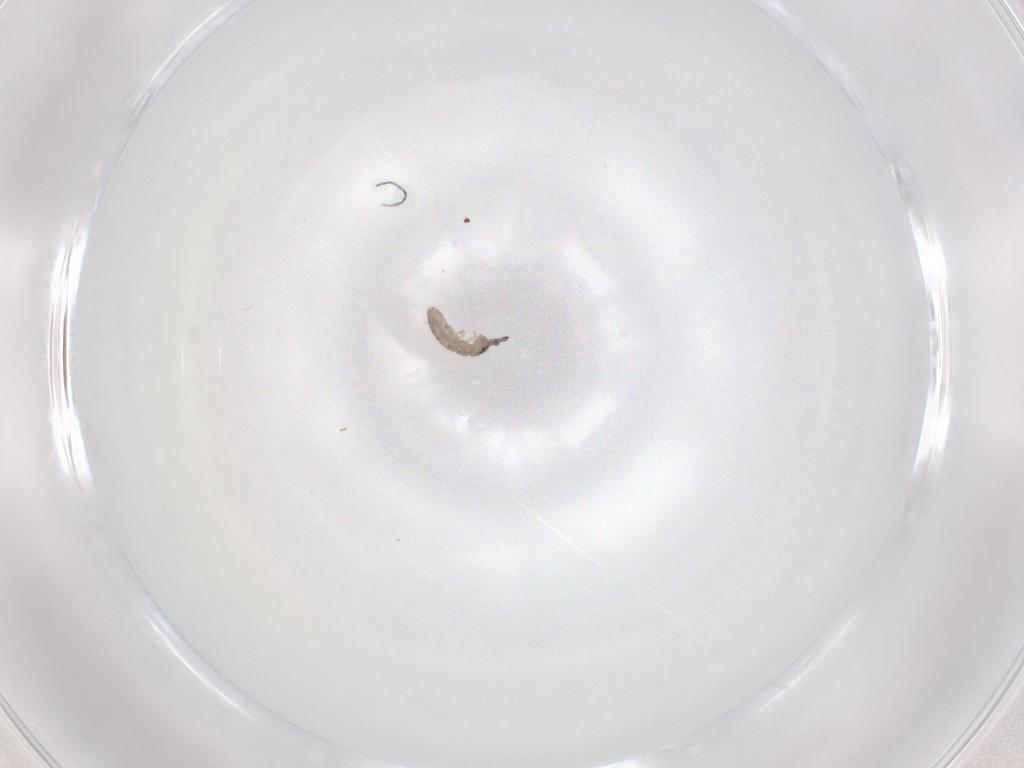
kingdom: Animalia
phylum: Arthropoda
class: Collembola
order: Entomobryomorpha
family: Isotomidae
